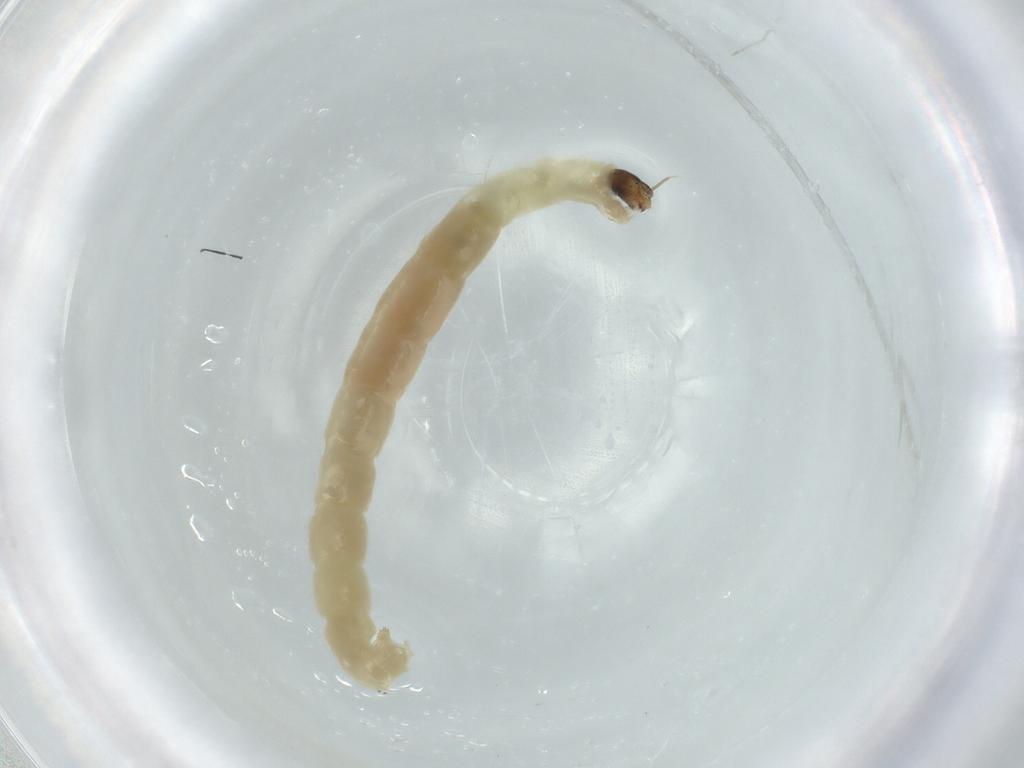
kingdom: Animalia
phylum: Arthropoda
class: Insecta
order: Diptera
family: Chironomidae
